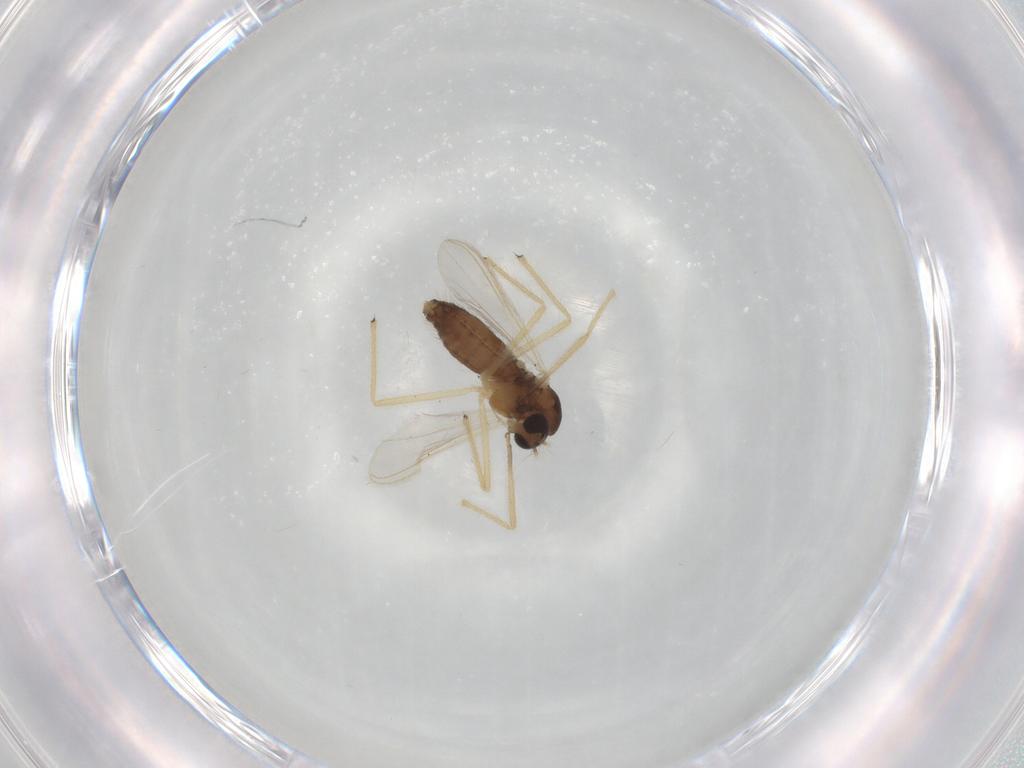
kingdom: Animalia
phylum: Arthropoda
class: Insecta
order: Diptera
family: Chironomidae
